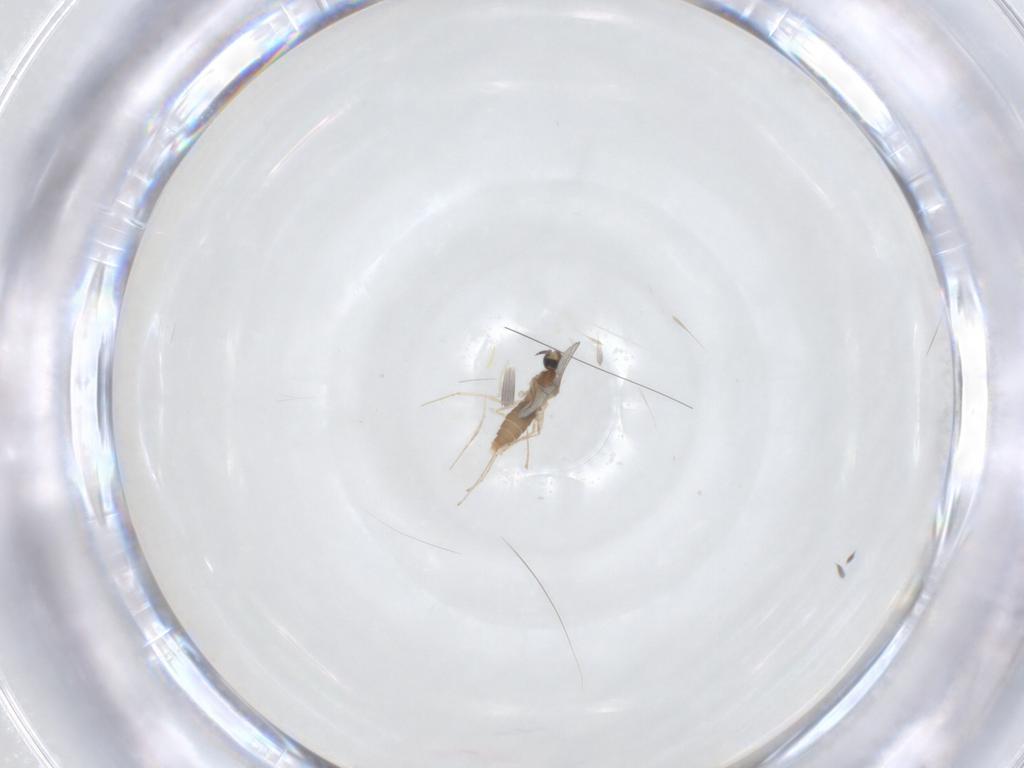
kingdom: Animalia
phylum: Arthropoda
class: Insecta
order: Diptera
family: Cecidomyiidae
